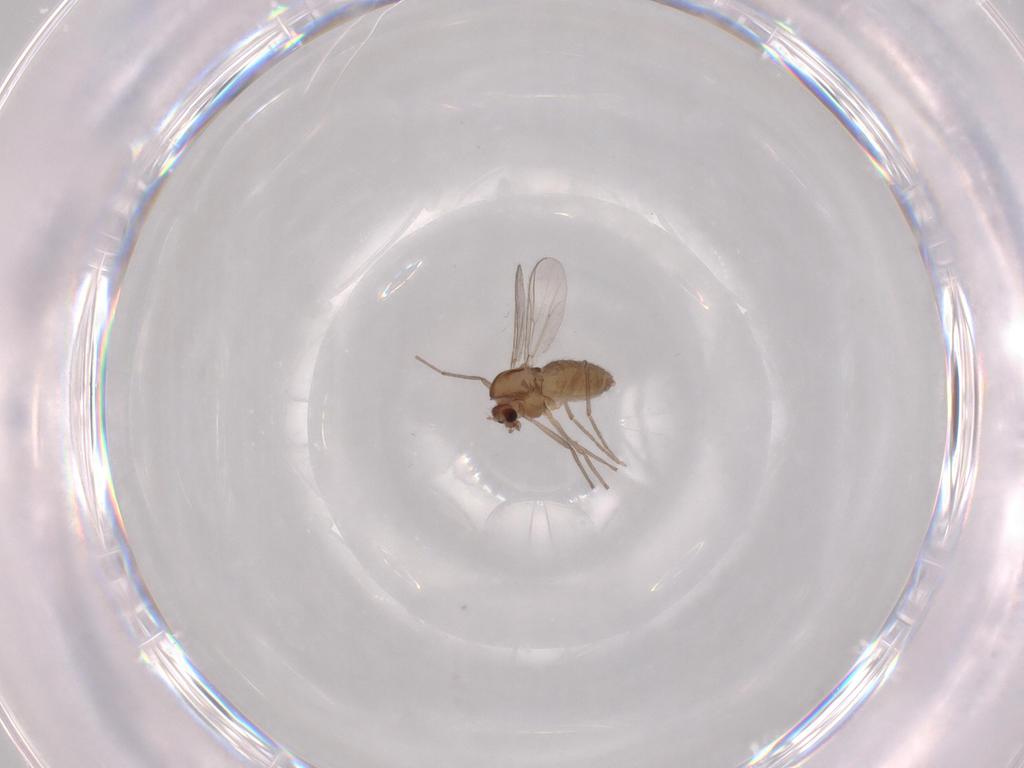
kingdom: Animalia
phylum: Arthropoda
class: Insecta
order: Diptera
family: Chironomidae
